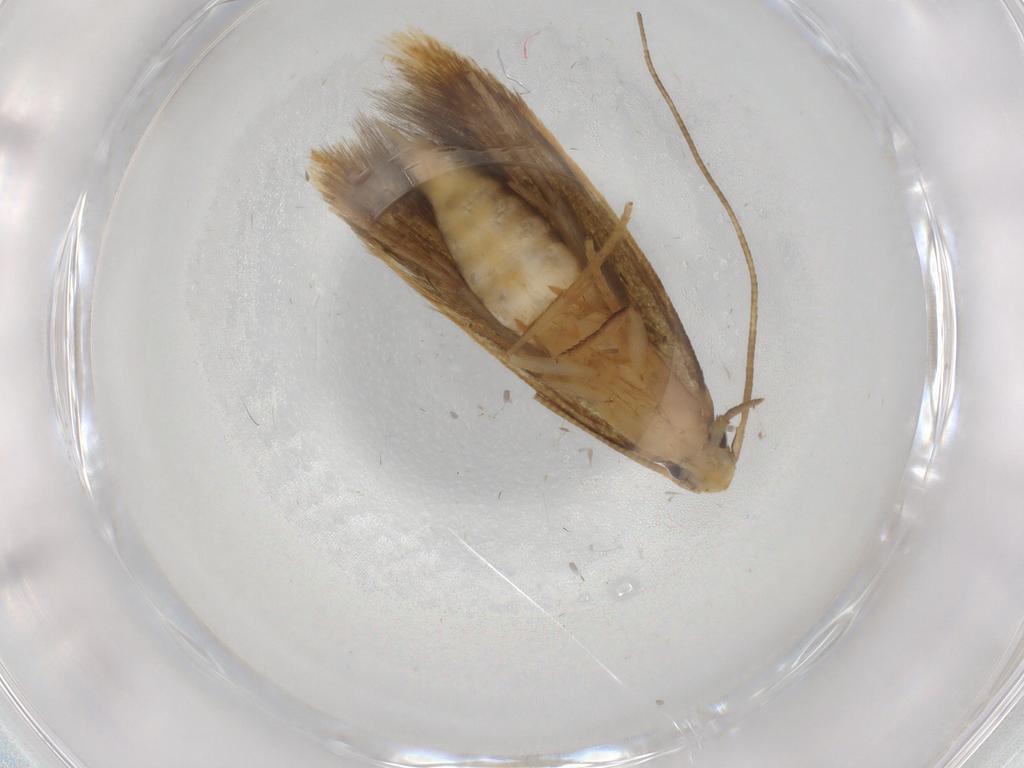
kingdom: Animalia
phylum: Arthropoda
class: Insecta
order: Lepidoptera
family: Tineidae
